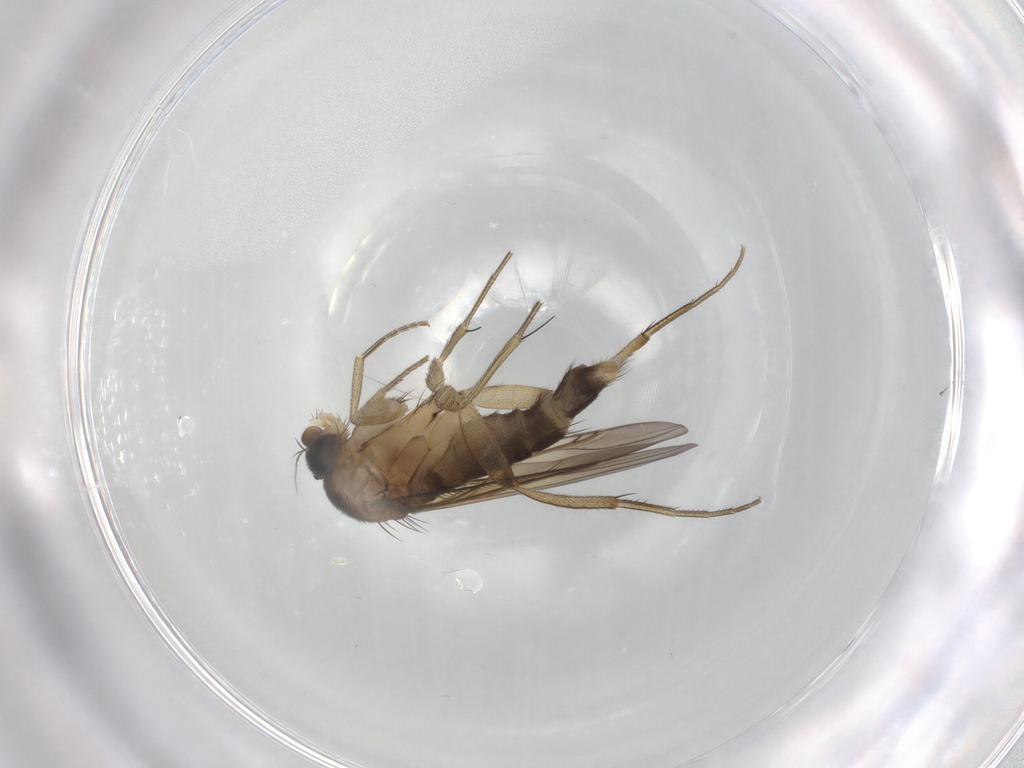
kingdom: Animalia
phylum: Arthropoda
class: Insecta
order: Diptera
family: Phoridae
